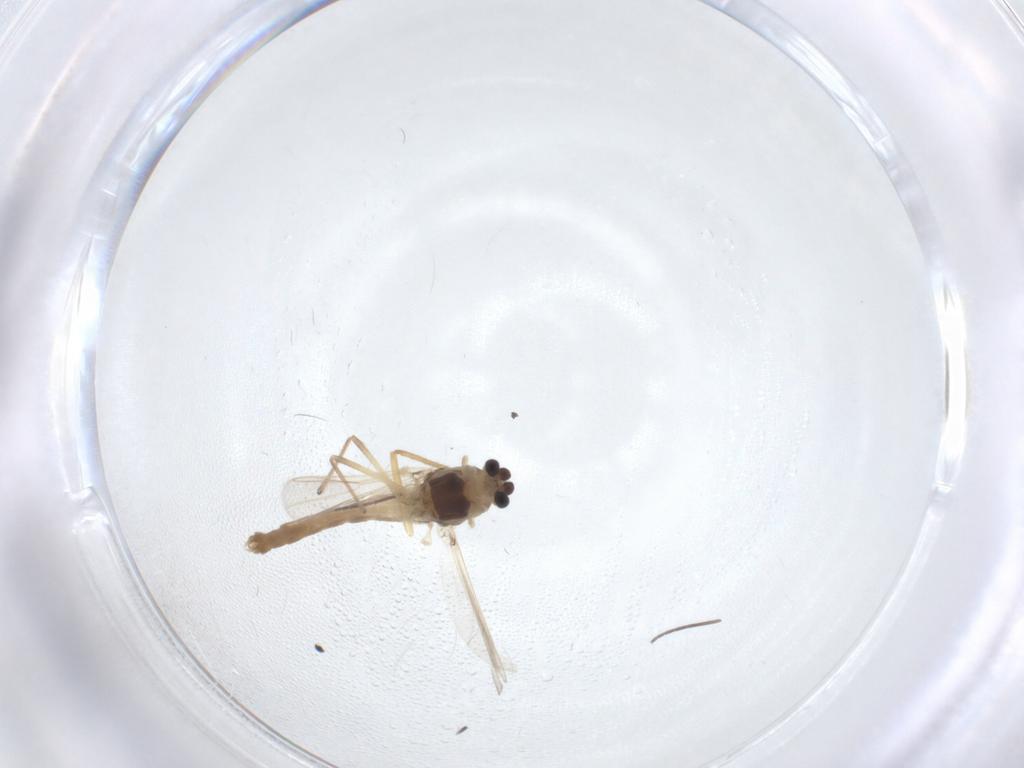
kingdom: Animalia
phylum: Arthropoda
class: Insecta
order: Diptera
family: Chironomidae
